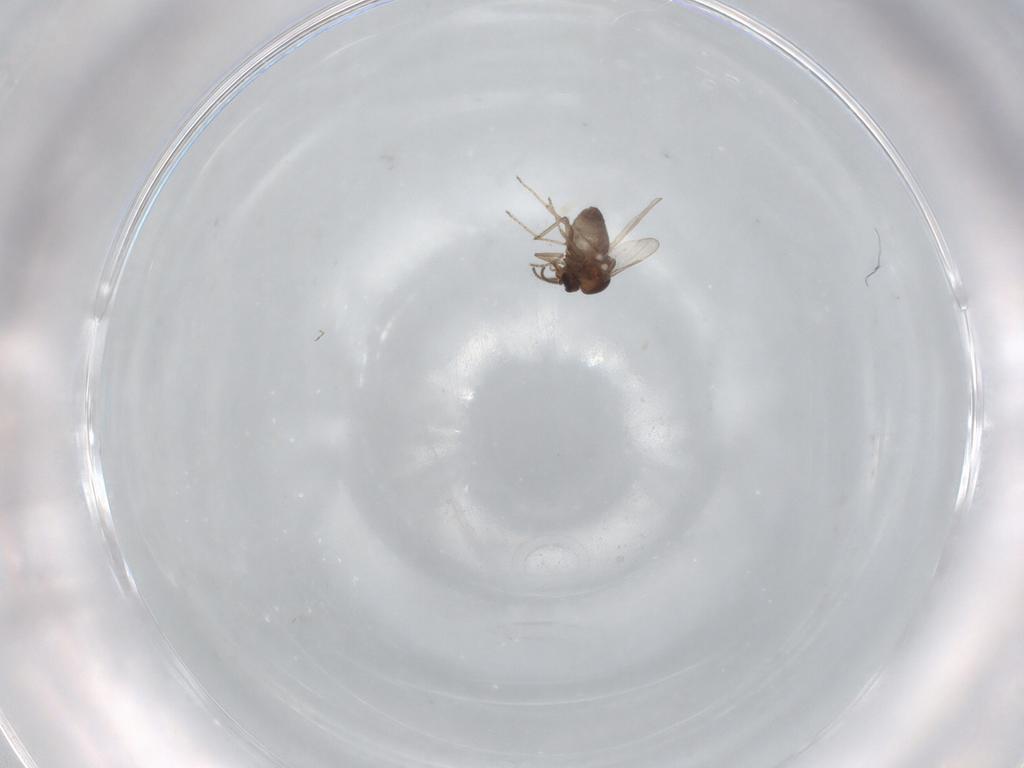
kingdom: Animalia
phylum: Arthropoda
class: Insecta
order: Diptera
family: Ceratopogonidae
